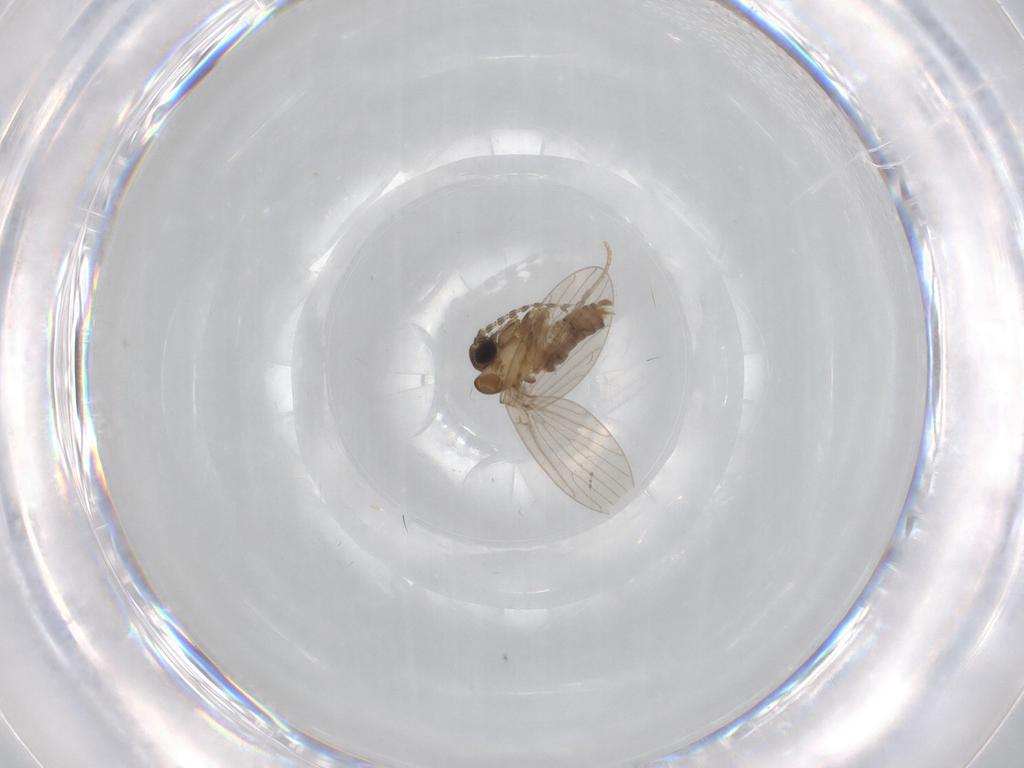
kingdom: Animalia
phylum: Arthropoda
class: Insecta
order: Diptera
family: Psychodidae
